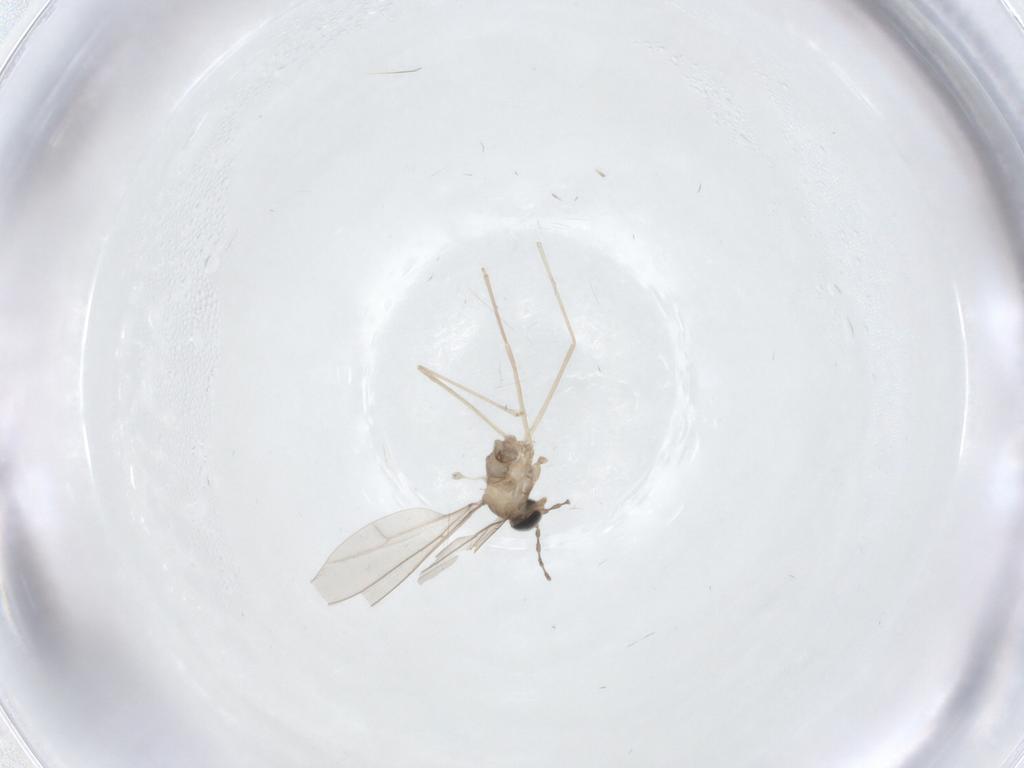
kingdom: Animalia
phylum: Arthropoda
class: Insecta
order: Diptera
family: Cecidomyiidae
